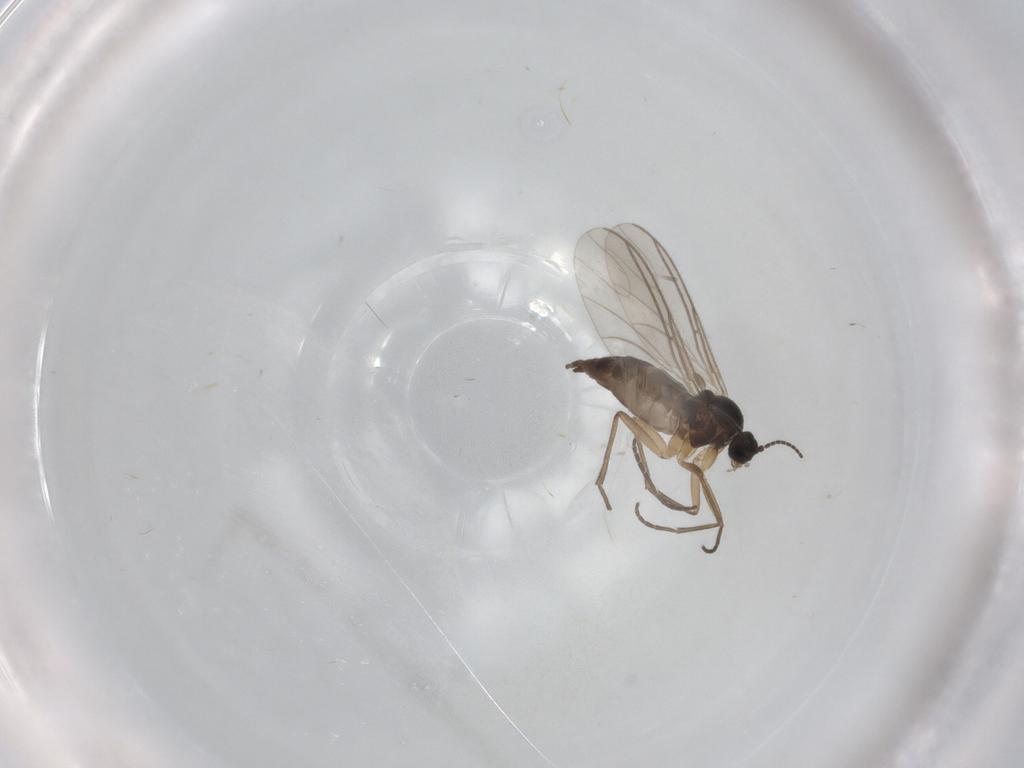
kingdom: Animalia
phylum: Arthropoda
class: Insecta
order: Diptera
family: Sciaridae
